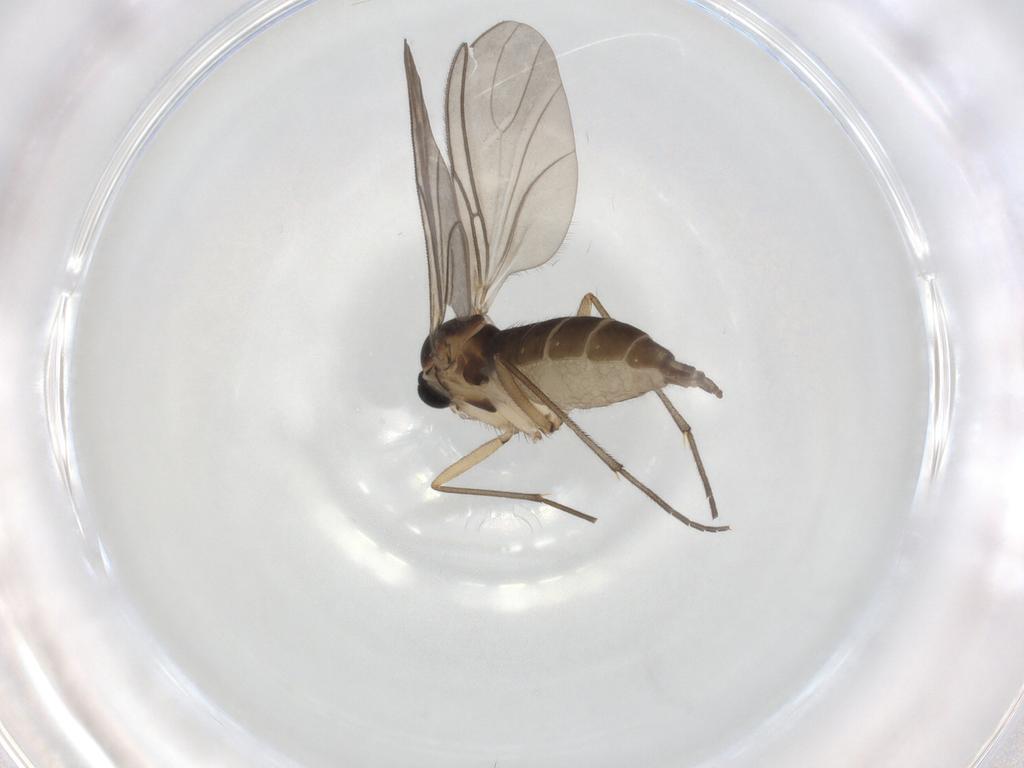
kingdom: Animalia
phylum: Arthropoda
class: Insecta
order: Diptera
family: Sciaridae
